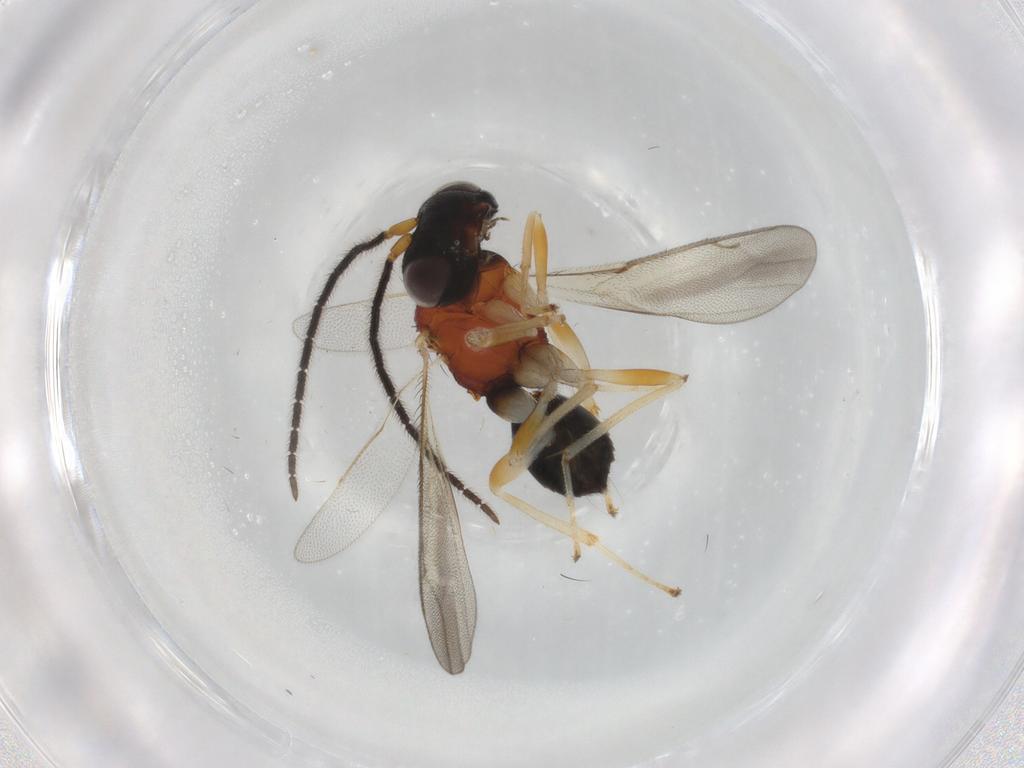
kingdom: Animalia
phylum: Arthropoda
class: Insecta
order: Hymenoptera
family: Diparidae
